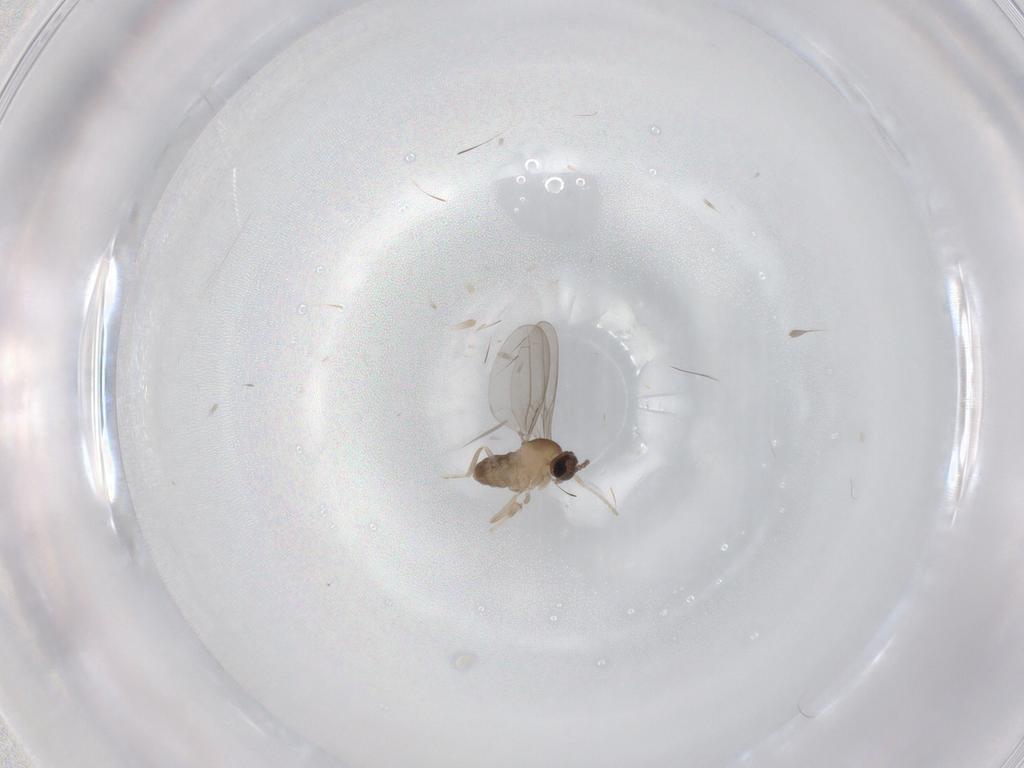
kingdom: Animalia
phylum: Arthropoda
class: Insecta
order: Diptera
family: Cecidomyiidae
